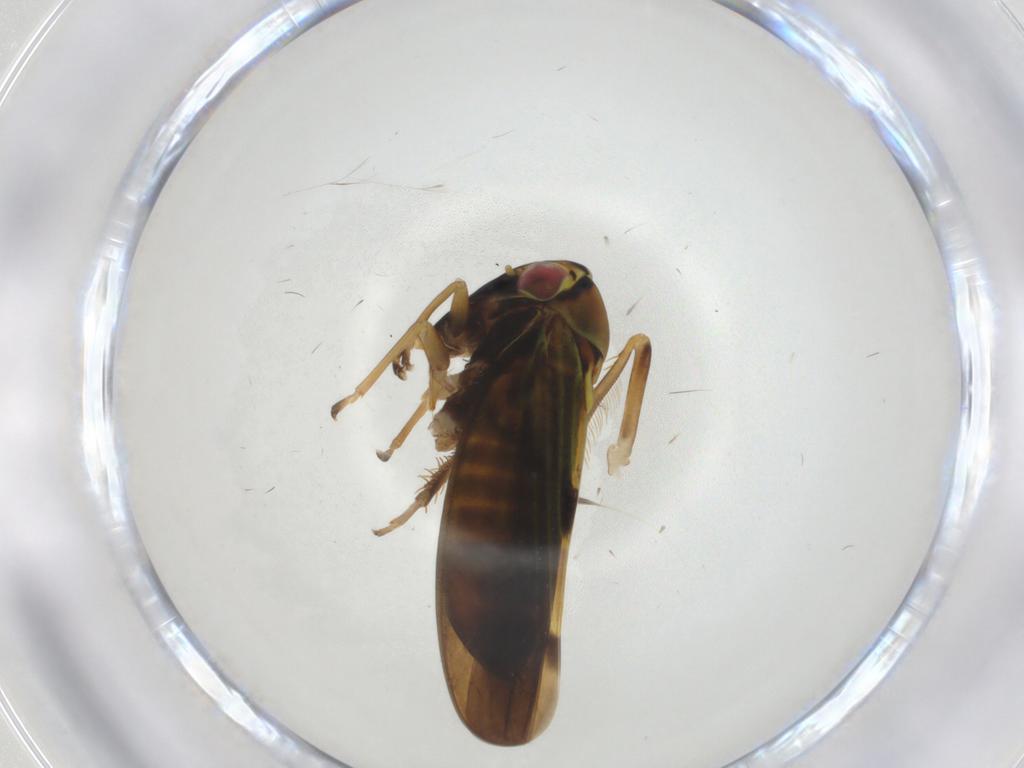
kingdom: Animalia
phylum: Arthropoda
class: Insecta
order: Hemiptera
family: Cicadellidae
